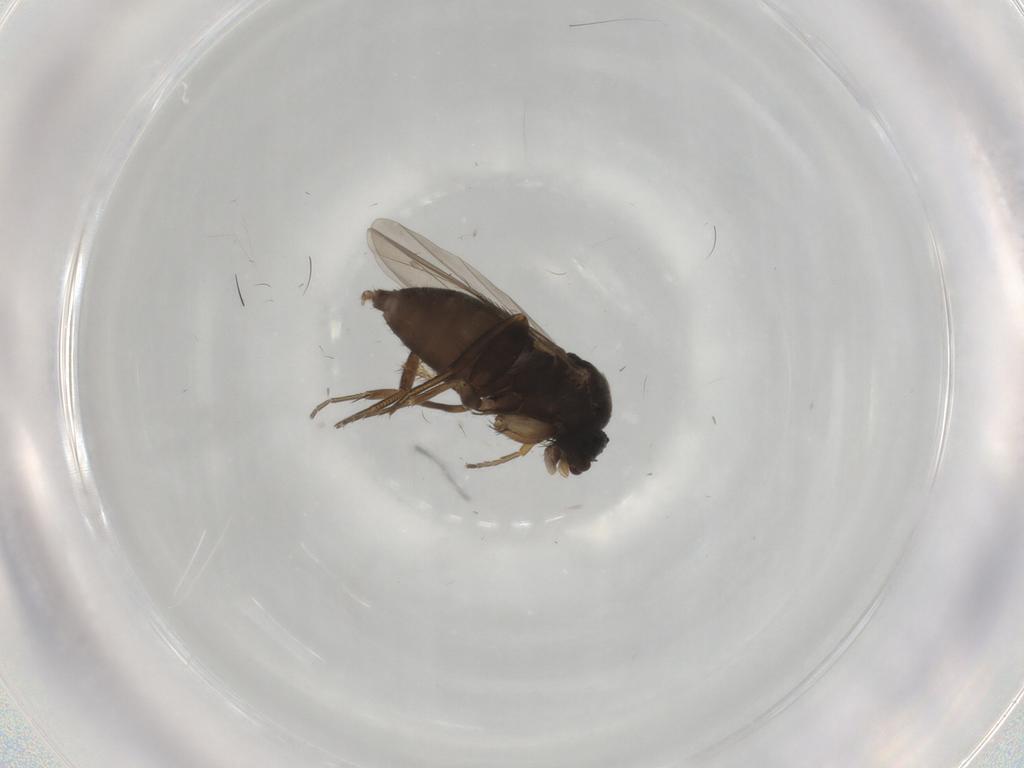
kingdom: Animalia
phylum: Arthropoda
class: Insecta
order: Diptera
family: Phoridae
